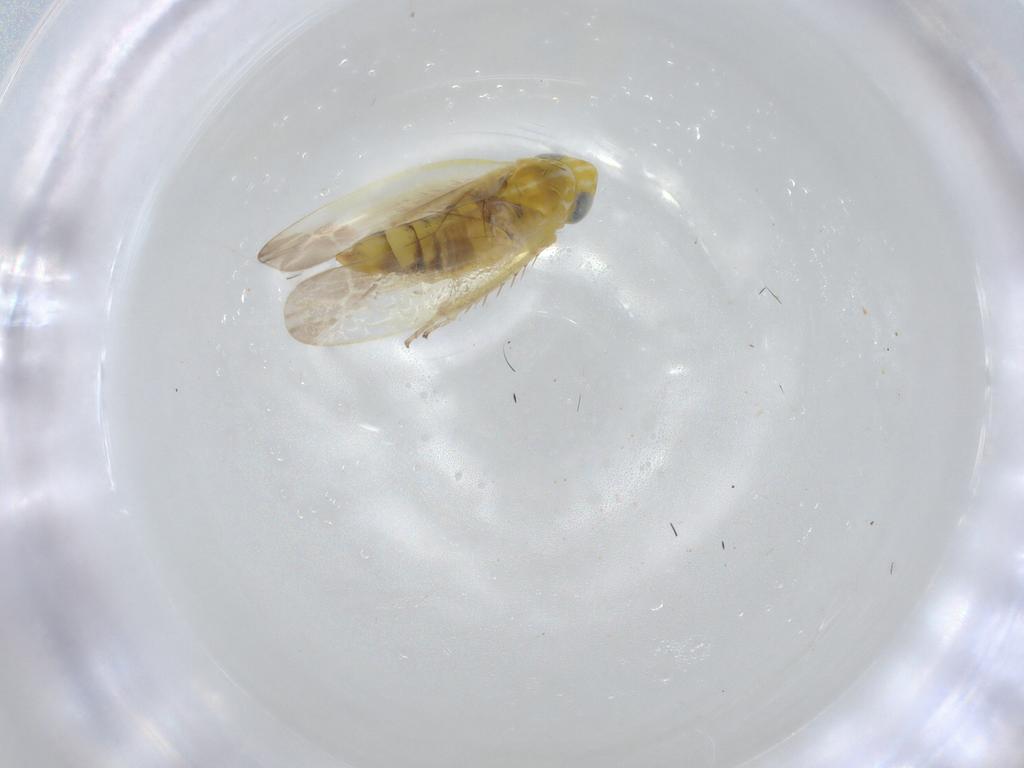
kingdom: Animalia
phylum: Arthropoda
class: Insecta
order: Hemiptera
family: Cicadellidae
